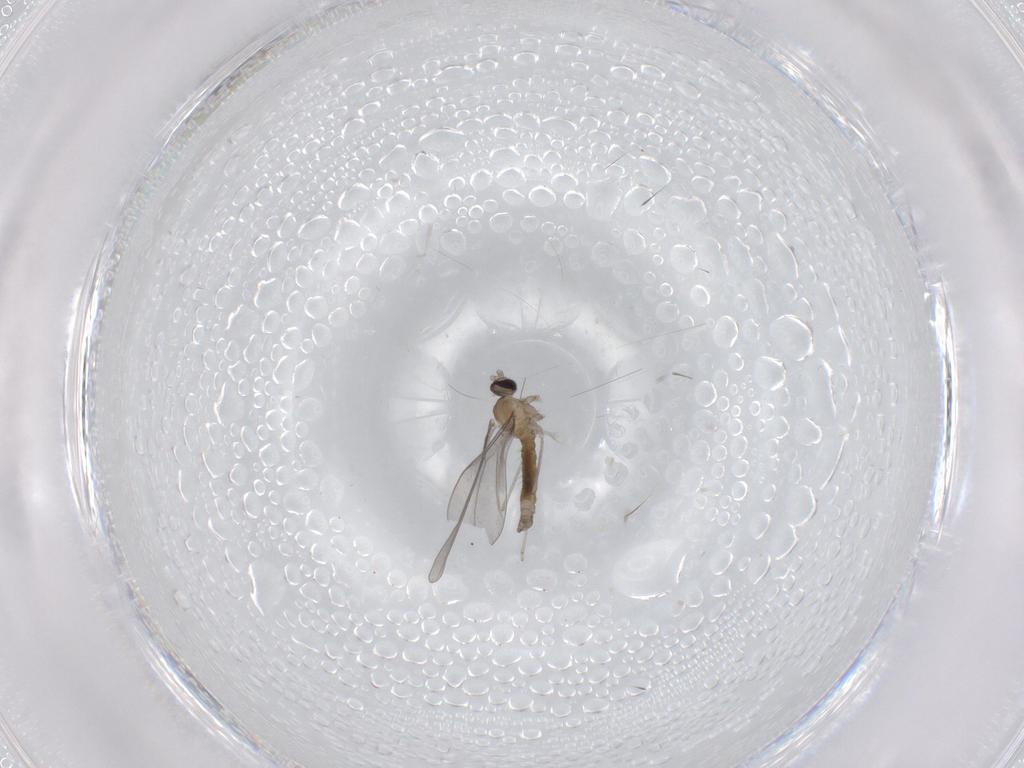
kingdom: Animalia
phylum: Arthropoda
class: Insecta
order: Diptera
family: Cecidomyiidae
